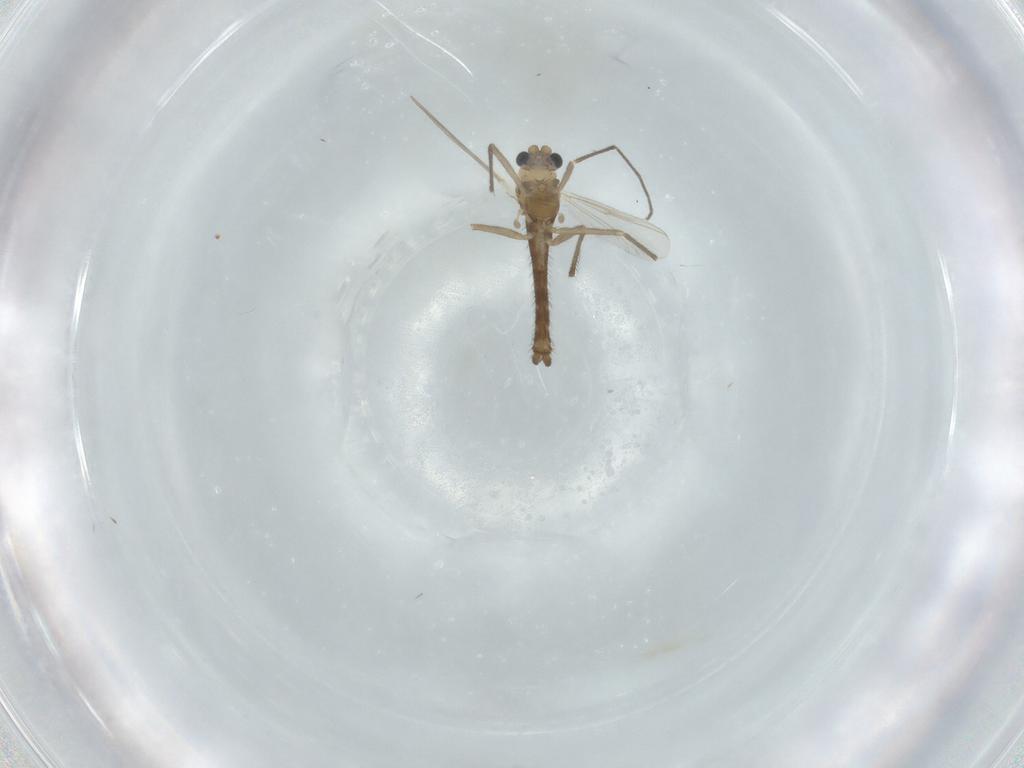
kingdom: Animalia
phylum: Arthropoda
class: Insecta
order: Diptera
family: Chironomidae
